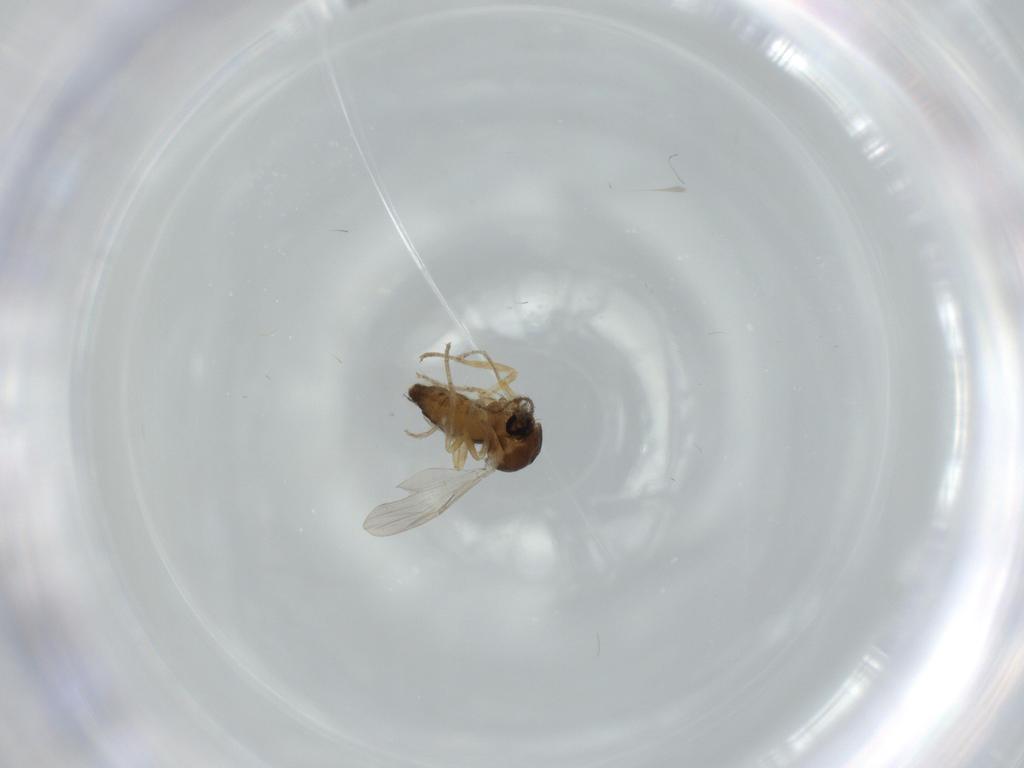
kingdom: Animalia
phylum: Arthropoda
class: Insecta
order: Diptera
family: Ceratopogonidae
